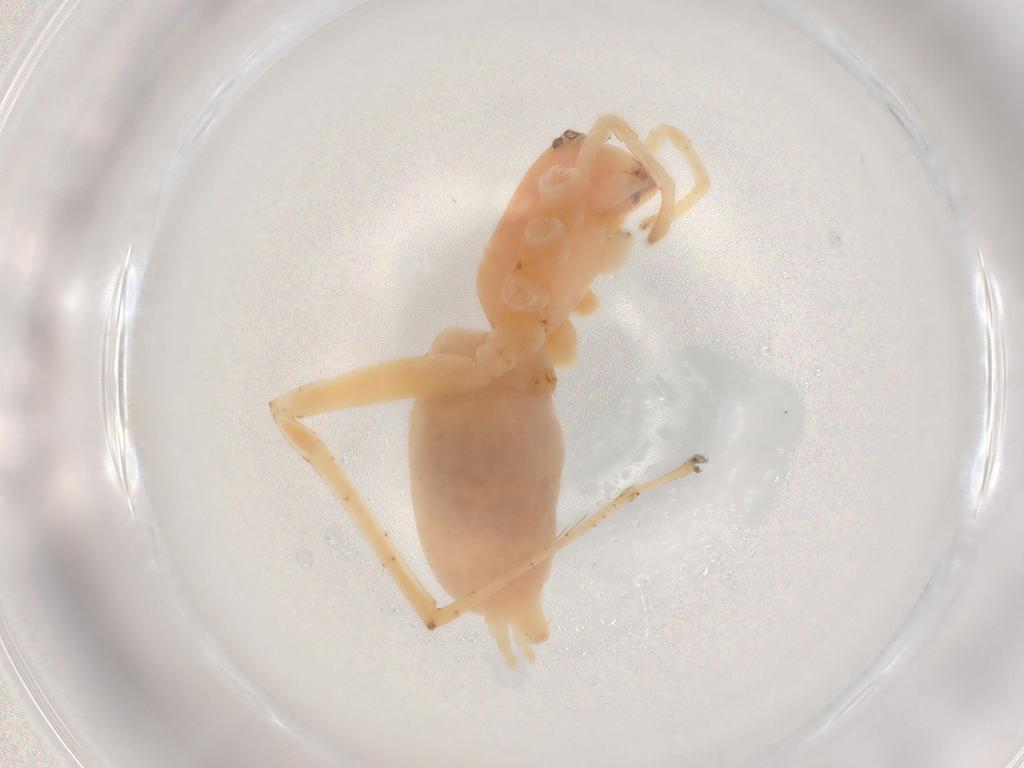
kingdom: Animalia
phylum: Arthropoda
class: Arachnida
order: Araneae
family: Anyphaenidae
